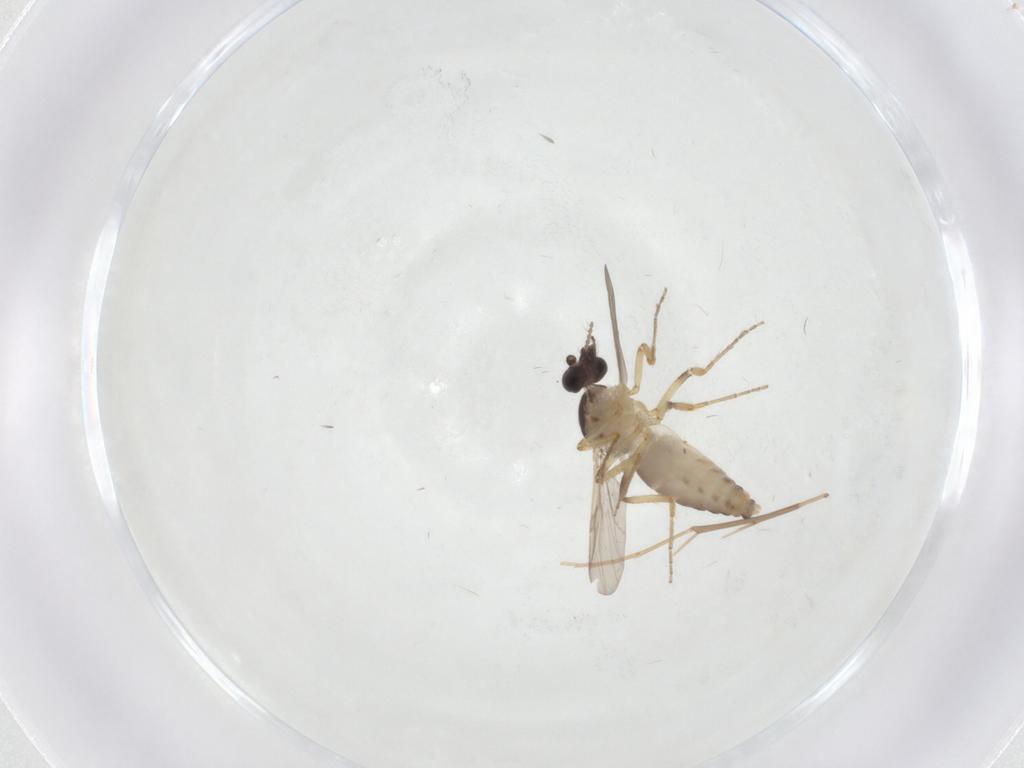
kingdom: Animalia
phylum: Arthropoda
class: Insecta
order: Diptera
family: Ceratopogonidae
